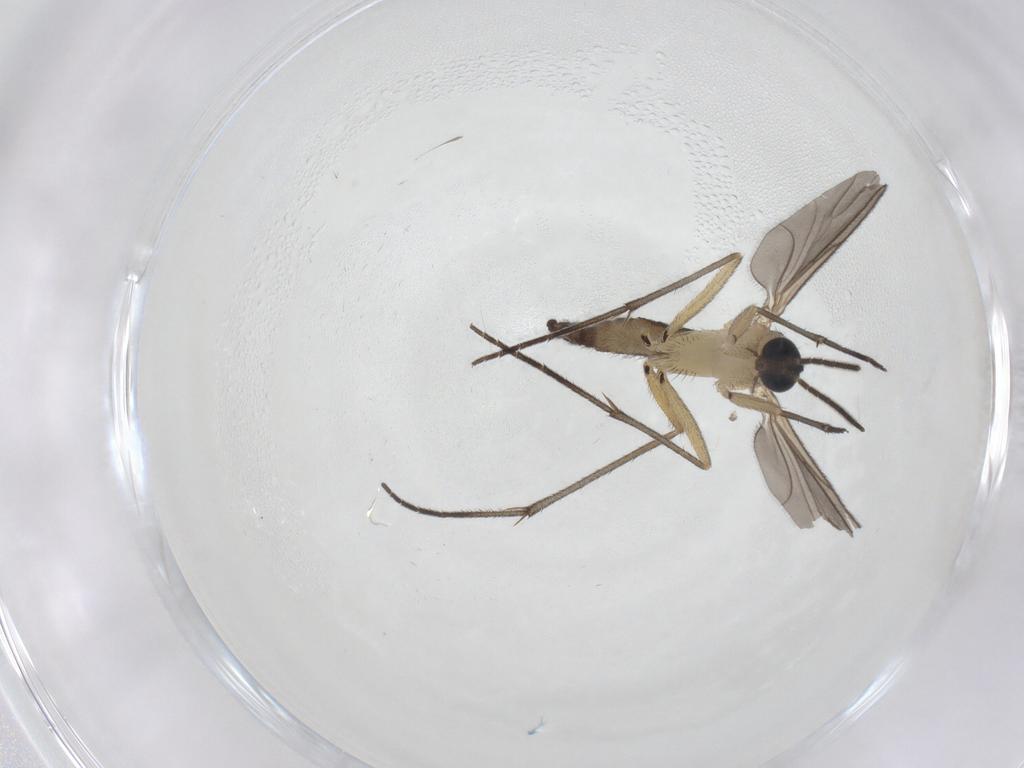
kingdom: Animalia
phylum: Arthropoda
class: Insecta
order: Diptera
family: Sciaridae
